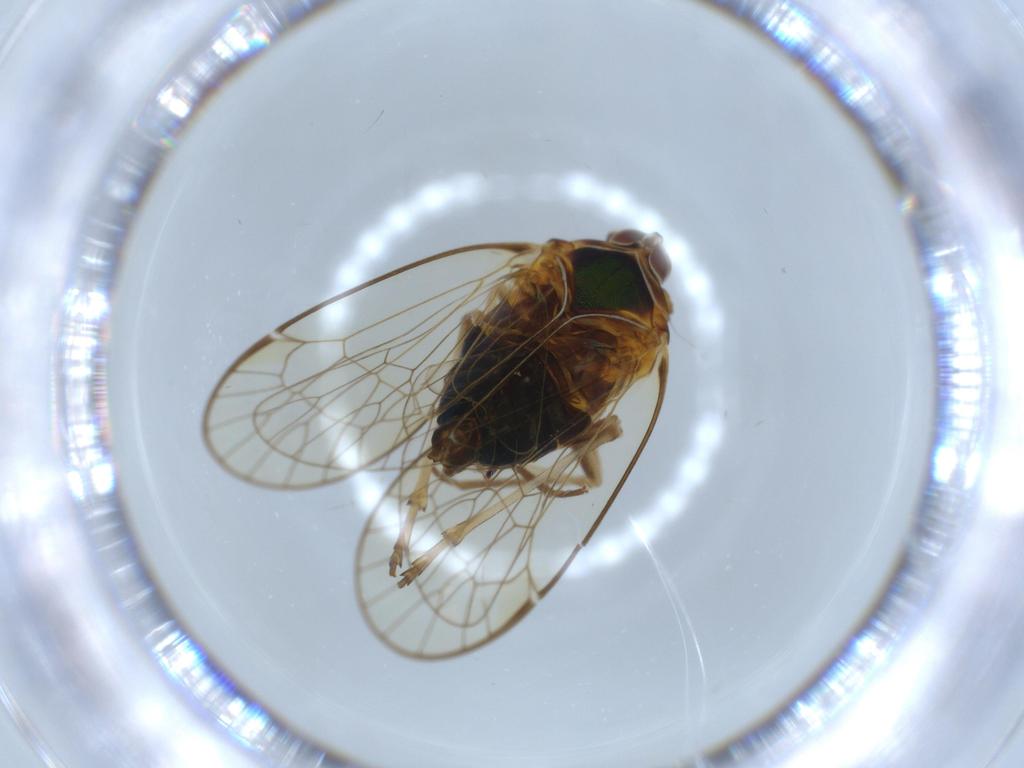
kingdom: Animalia
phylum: Arthropoda
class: Insecta
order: Hemiptera
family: Kinnaridae
